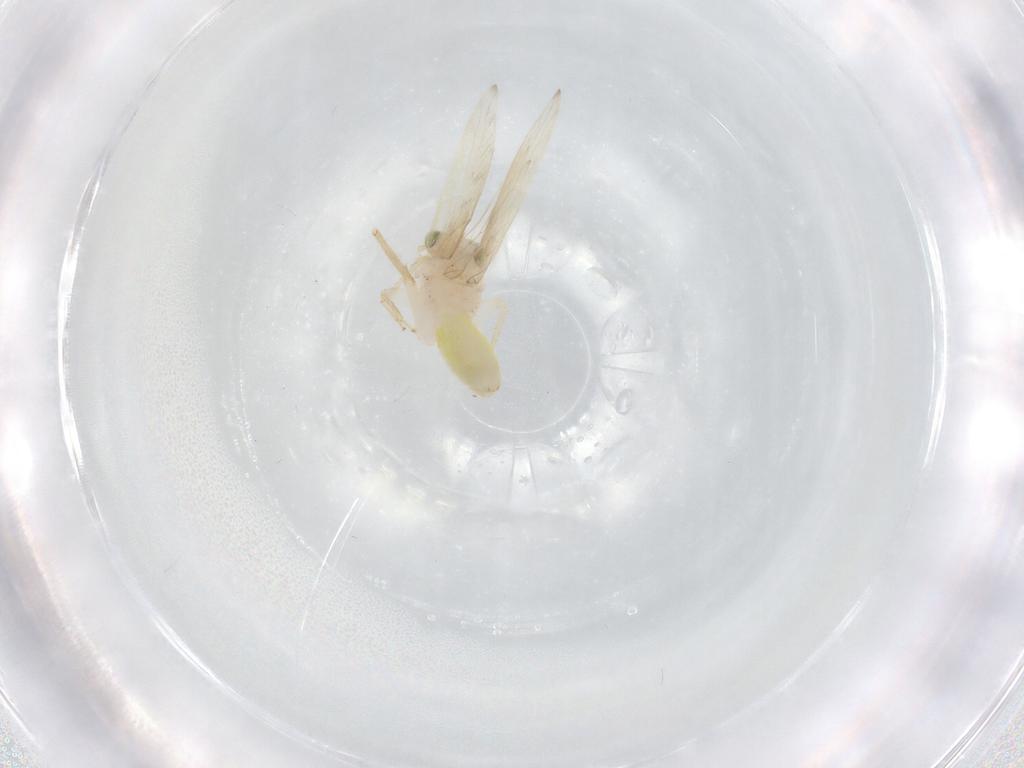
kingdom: Animalia
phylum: Arthropoda
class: Insecta
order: Psocodea
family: Lepidopsocidae
